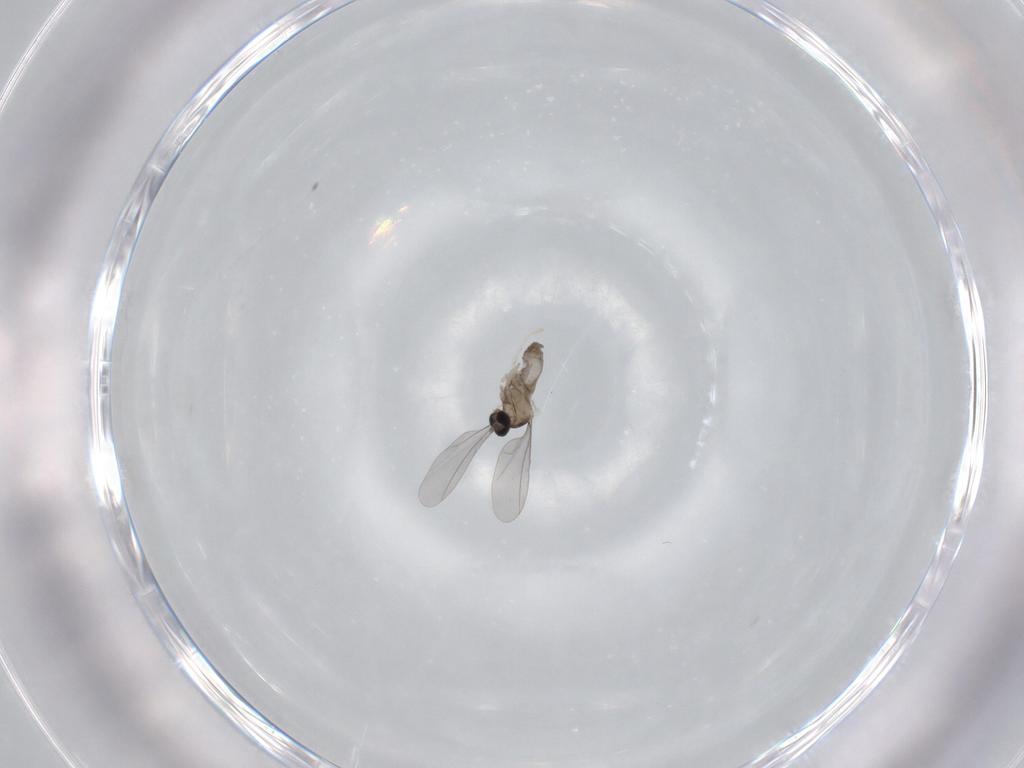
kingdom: Animalia
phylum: Arthropoda
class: Insecta
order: Diptera
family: Cecidomyiidae
